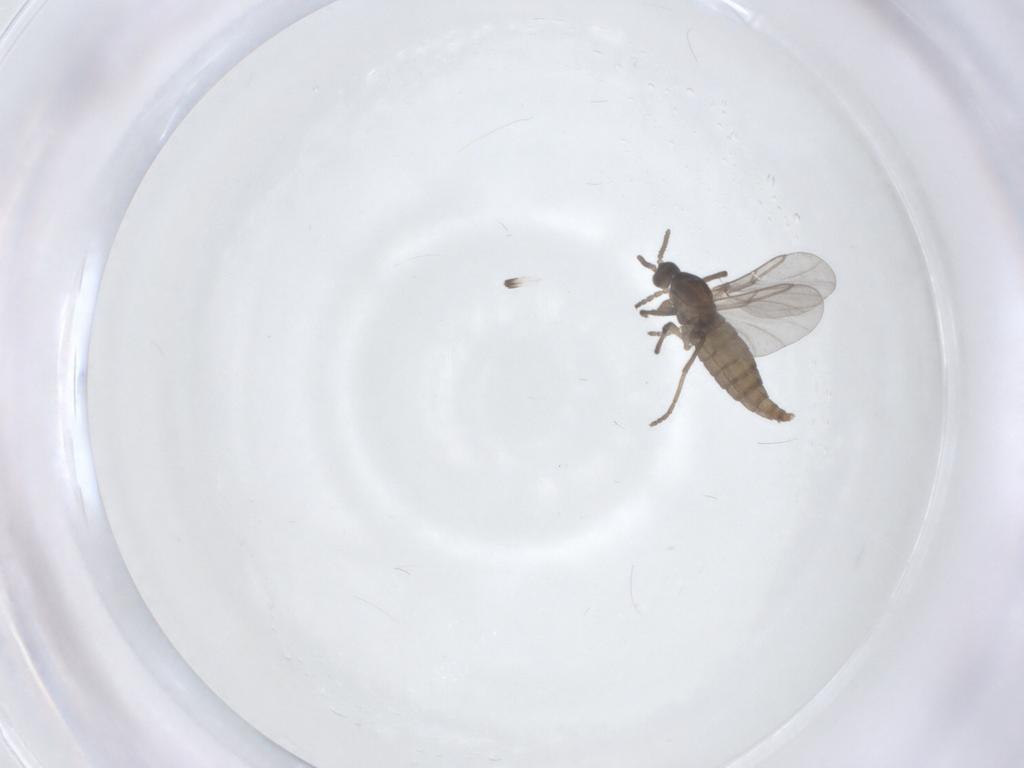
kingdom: Animalia
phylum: Arthropoda
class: Insecta
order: Diptera
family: Cecidomyiidae
